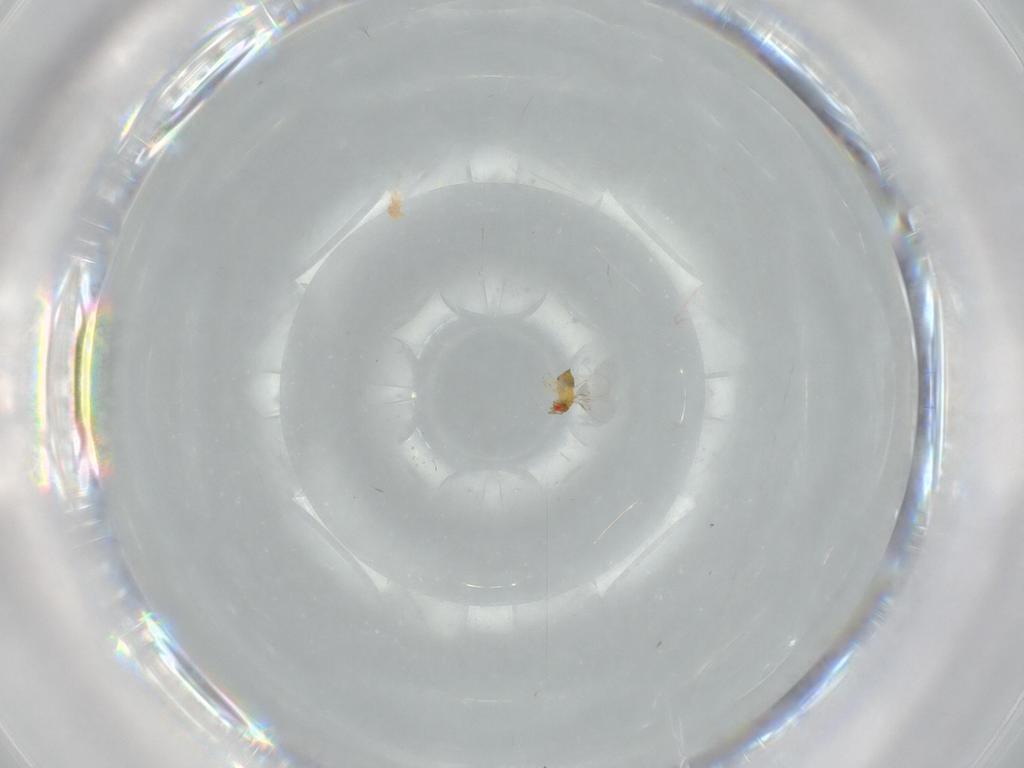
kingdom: Animalia
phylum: Arthropoda
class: Insecta
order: Hymenoptera
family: Trichogrammatidae
